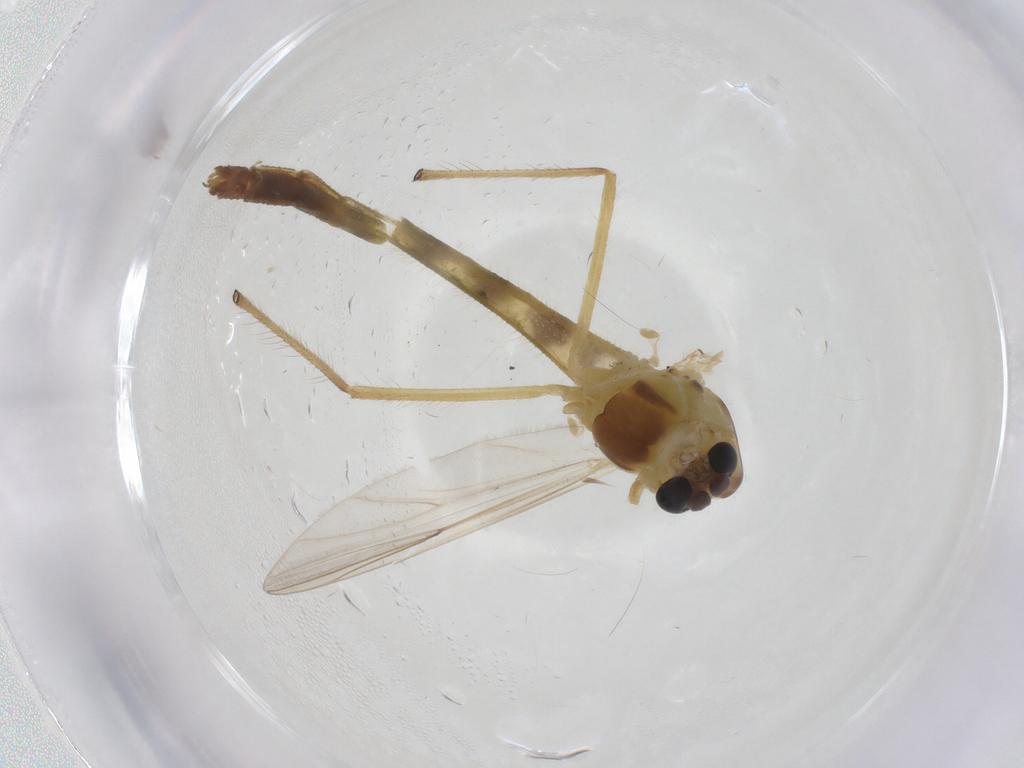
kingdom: Animalia
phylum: Arthropoda
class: Insecta
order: Diptera
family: Chironomidae
